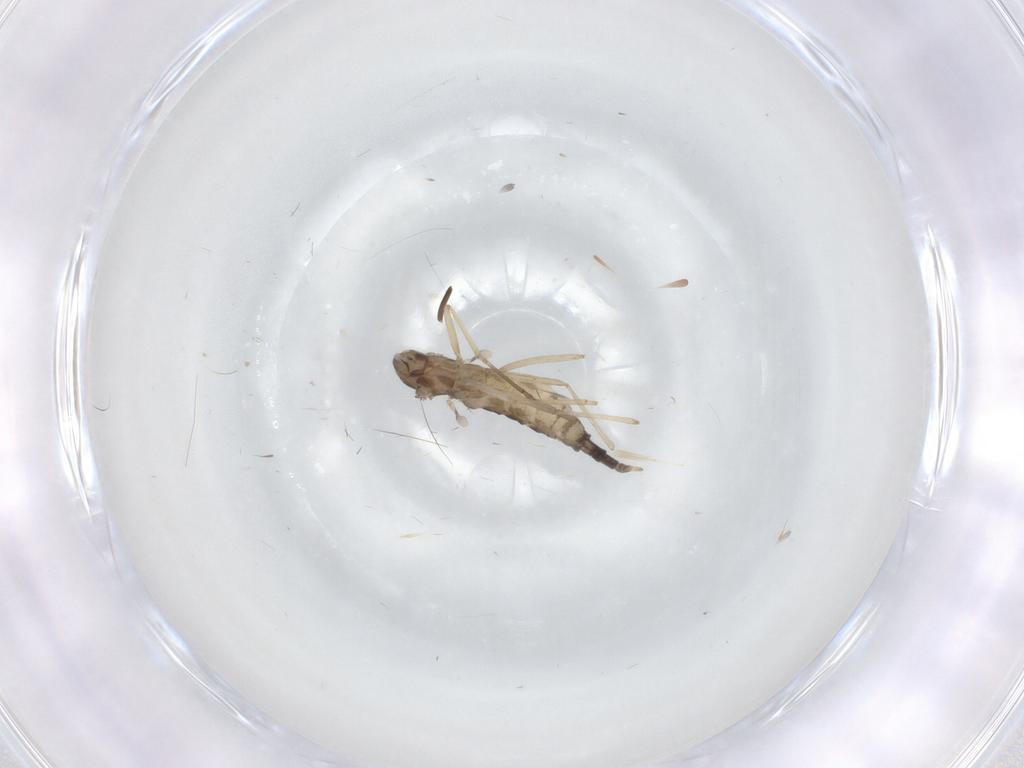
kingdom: Animalia
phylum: Arthropoda
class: Insecta
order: Diptera
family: Cecidomyiidae
